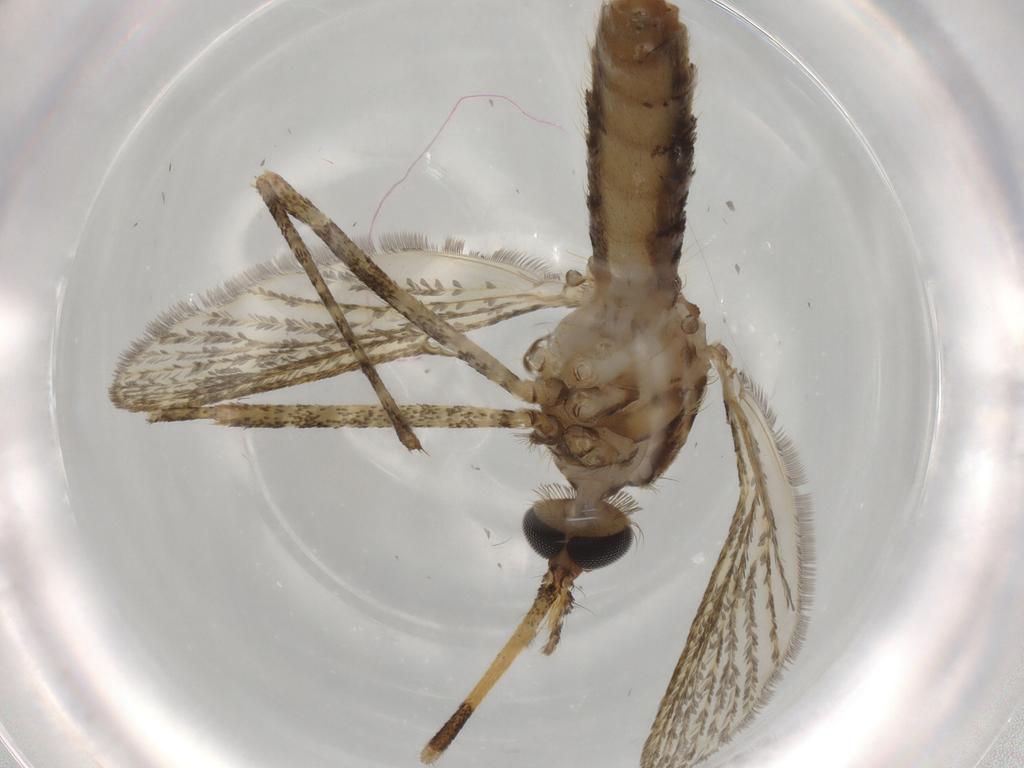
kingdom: Animalia
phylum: Arthropoda
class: Insecta
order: Diptera
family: Phoridae
